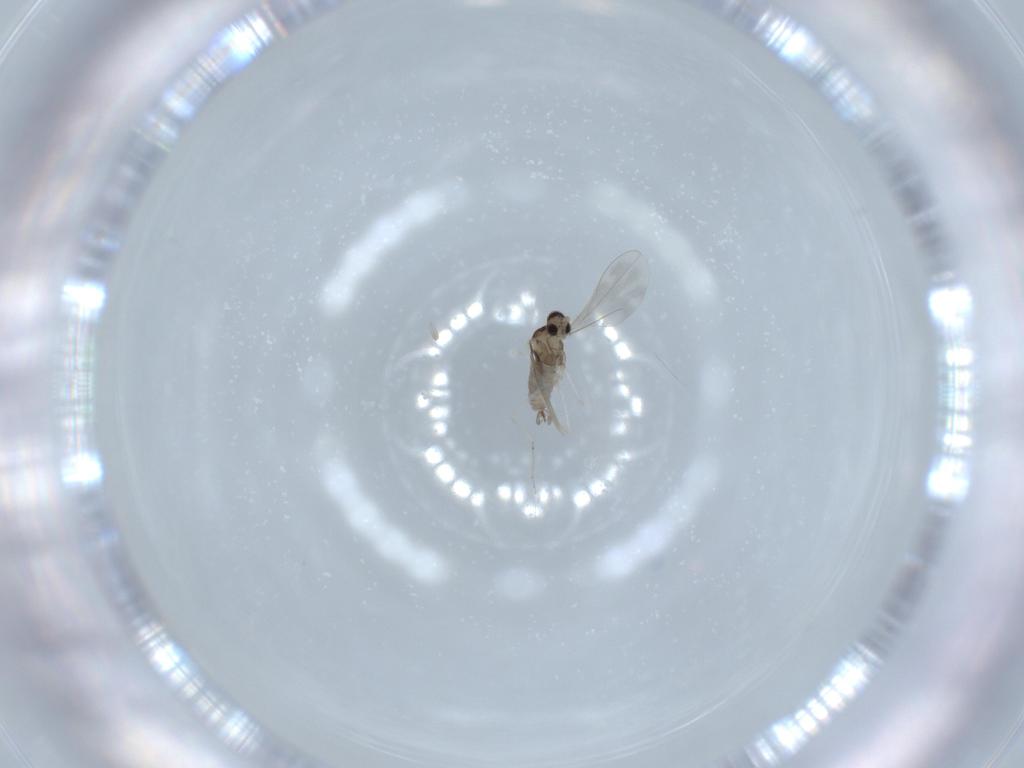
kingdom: Animalia
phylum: Arthropoda
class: Insecta
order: Diptera
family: Cecidomyiidae
